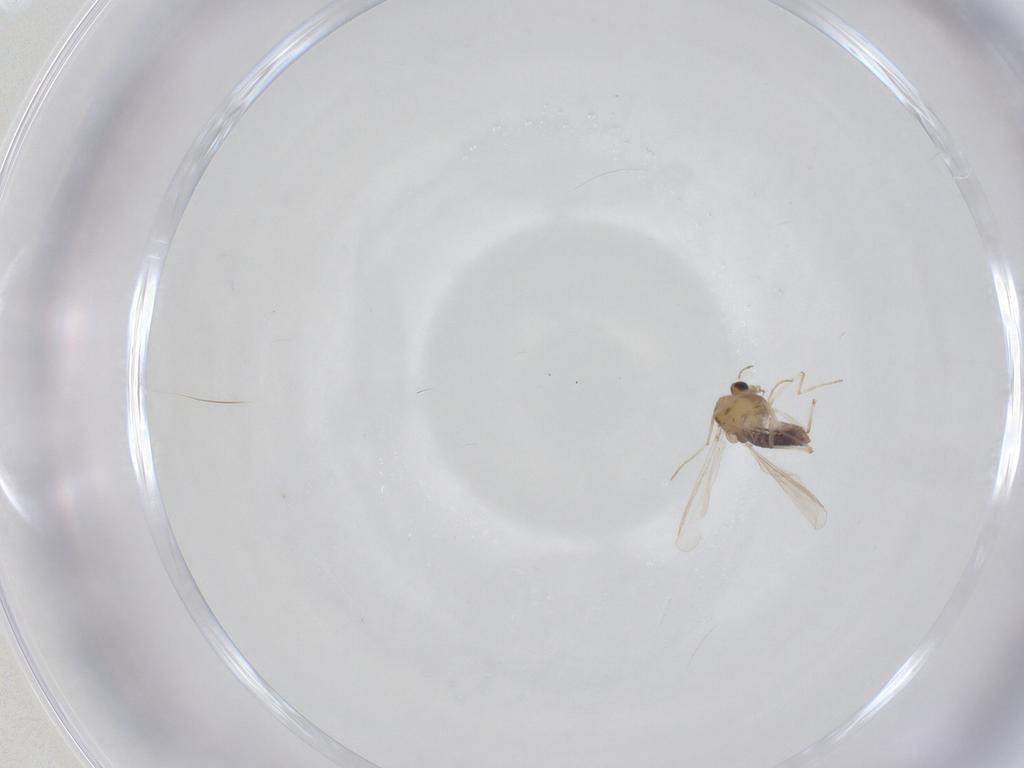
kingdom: Animalia
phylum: Arthropoda
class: Insecta
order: Diptera
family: Chironomidae
